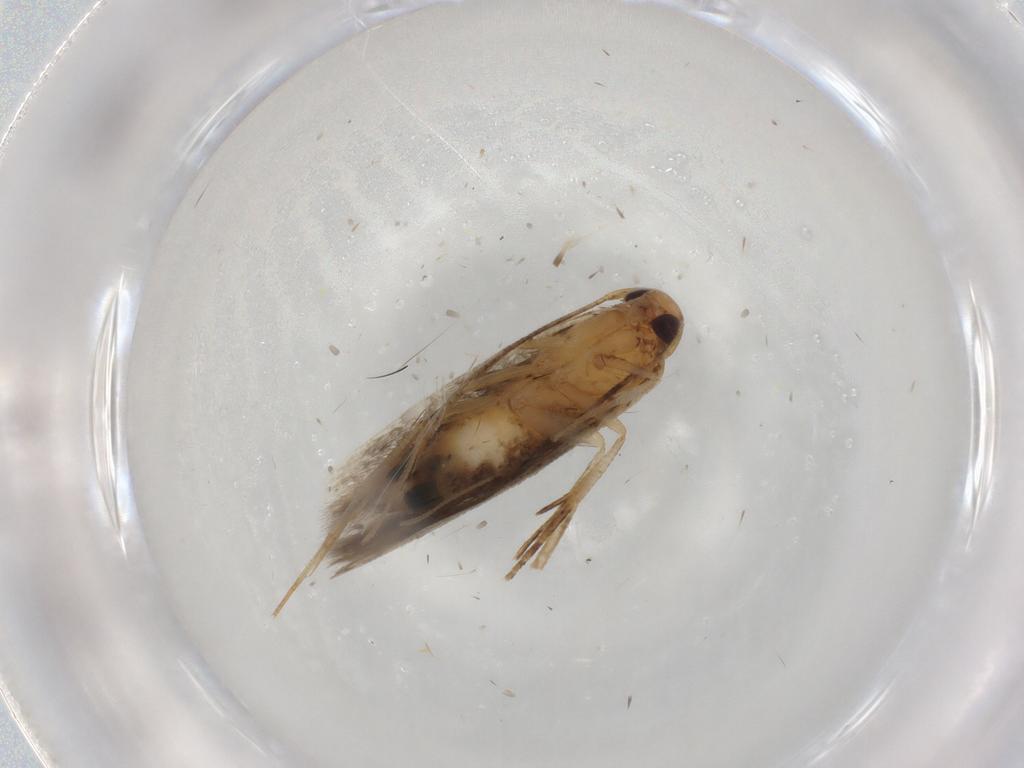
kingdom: Animalia
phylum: Arthropoda
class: Insecta
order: Lepidoptera
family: Cosmopterigidae
